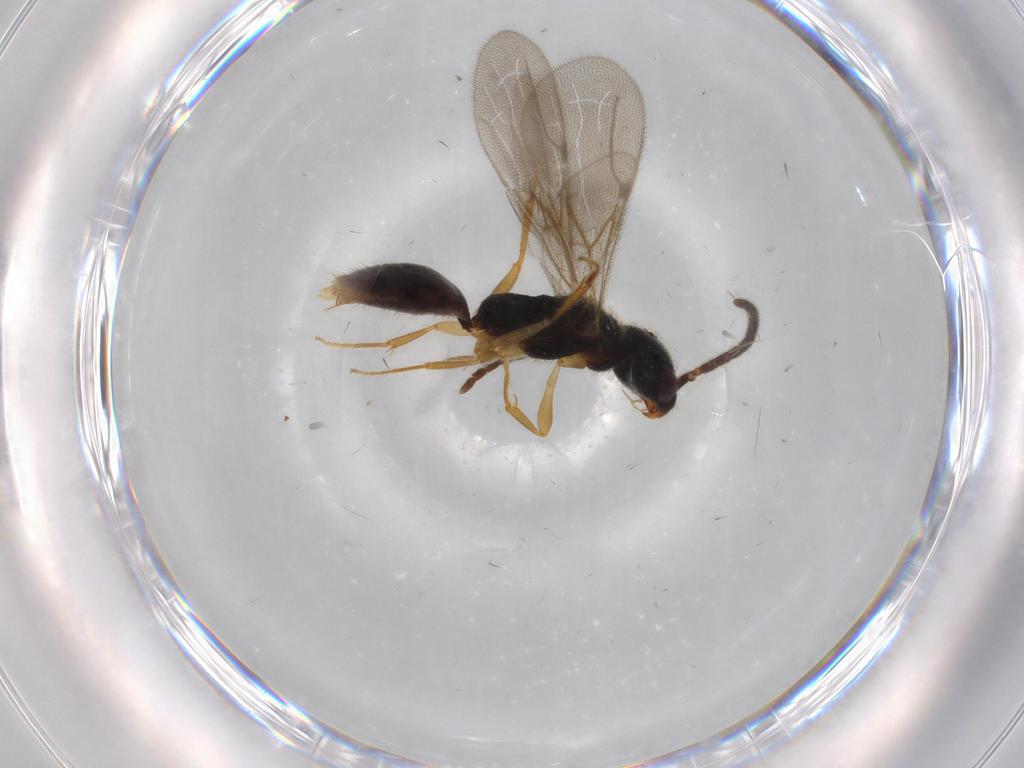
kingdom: Animalia
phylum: Arthropoda
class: Insecta
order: Hymenoptera
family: Bethylidae
